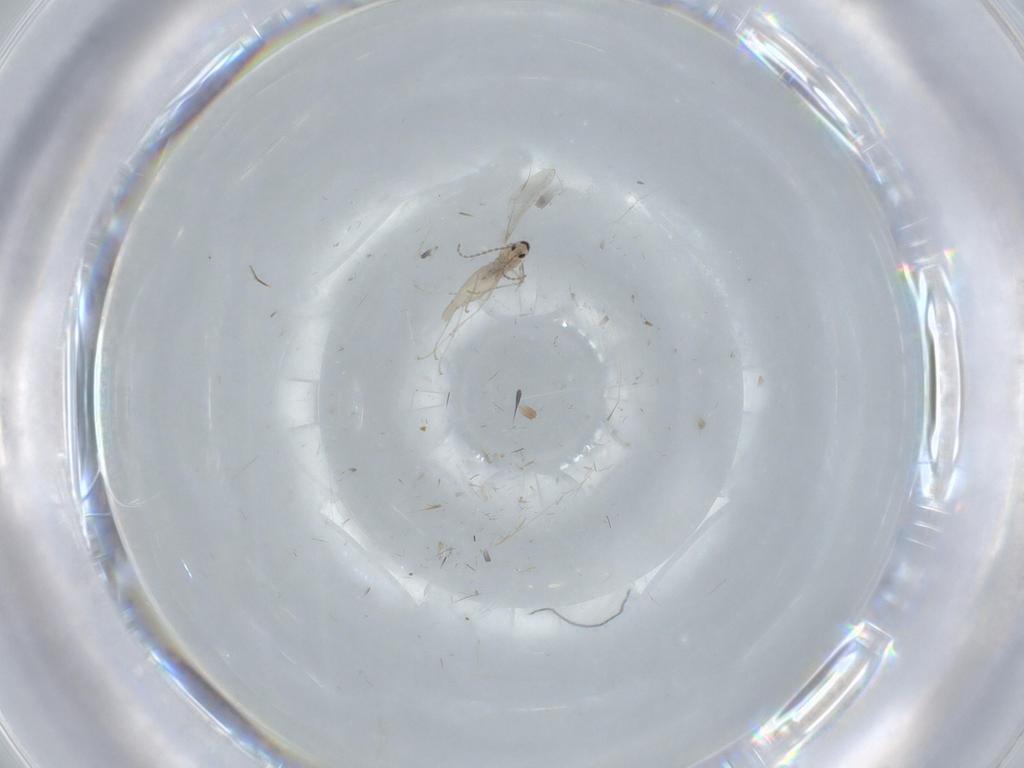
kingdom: Animalia
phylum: Arthropoda
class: Insecta
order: Diptera
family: Cecidomyiidae
